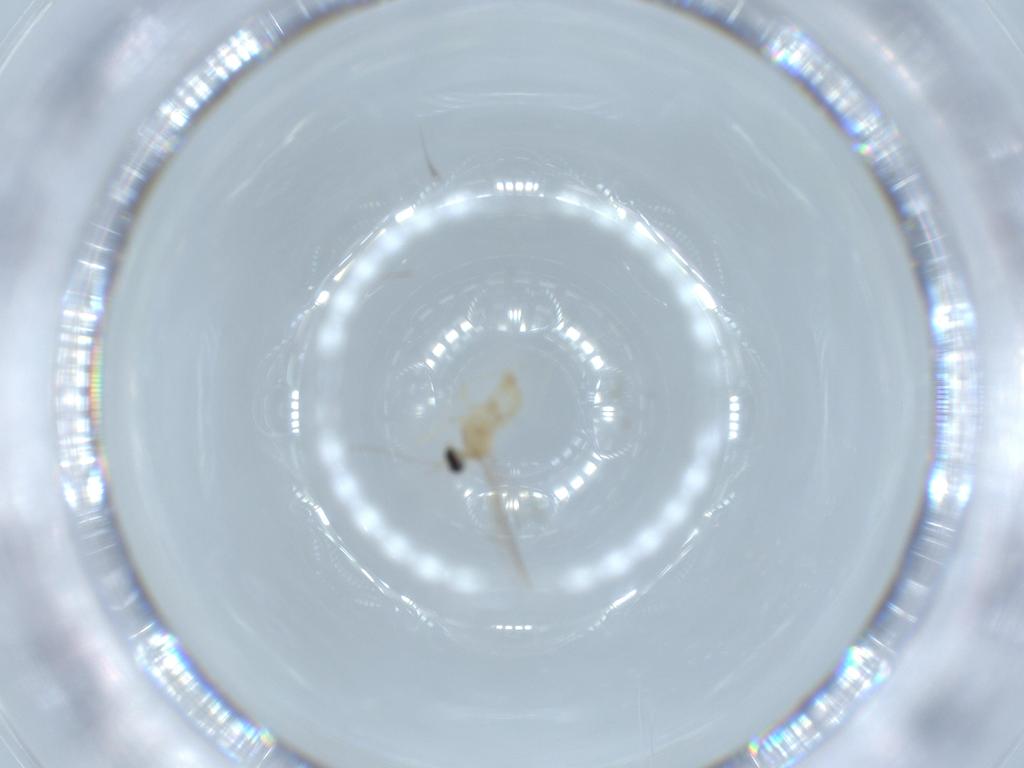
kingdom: Animalia
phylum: Arthropoda
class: Insecta
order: Diptera
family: Cecidomyiidae
